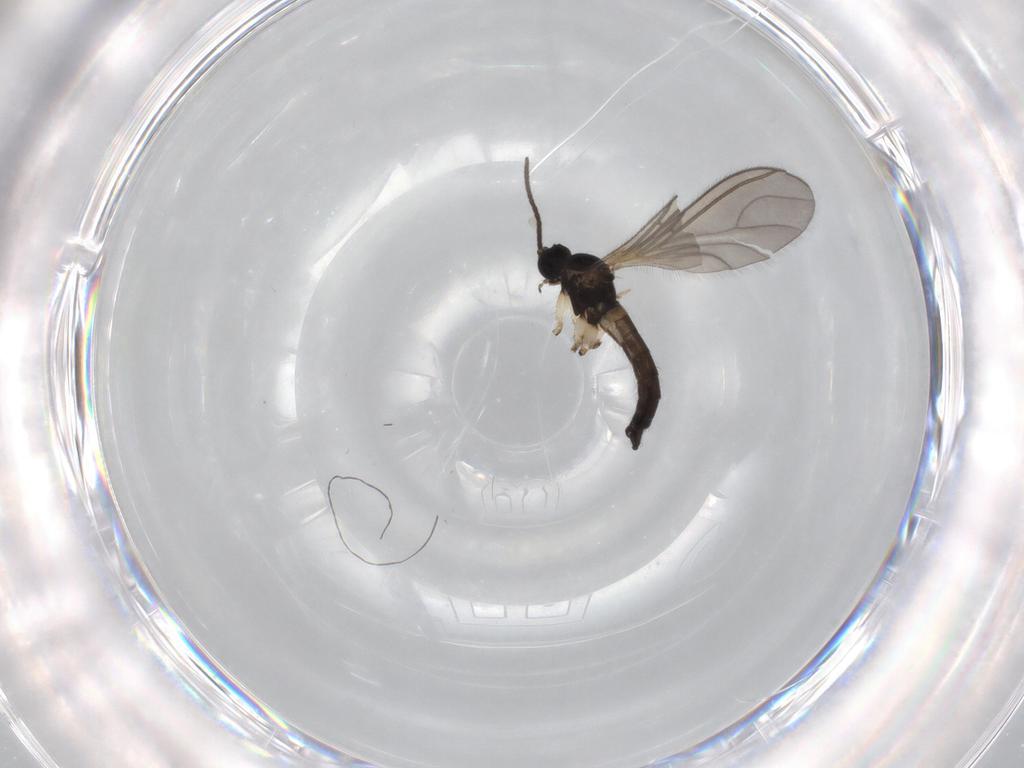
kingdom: Animalia
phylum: Arthropoda
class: Insecta
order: Diptera
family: Sciaridae
